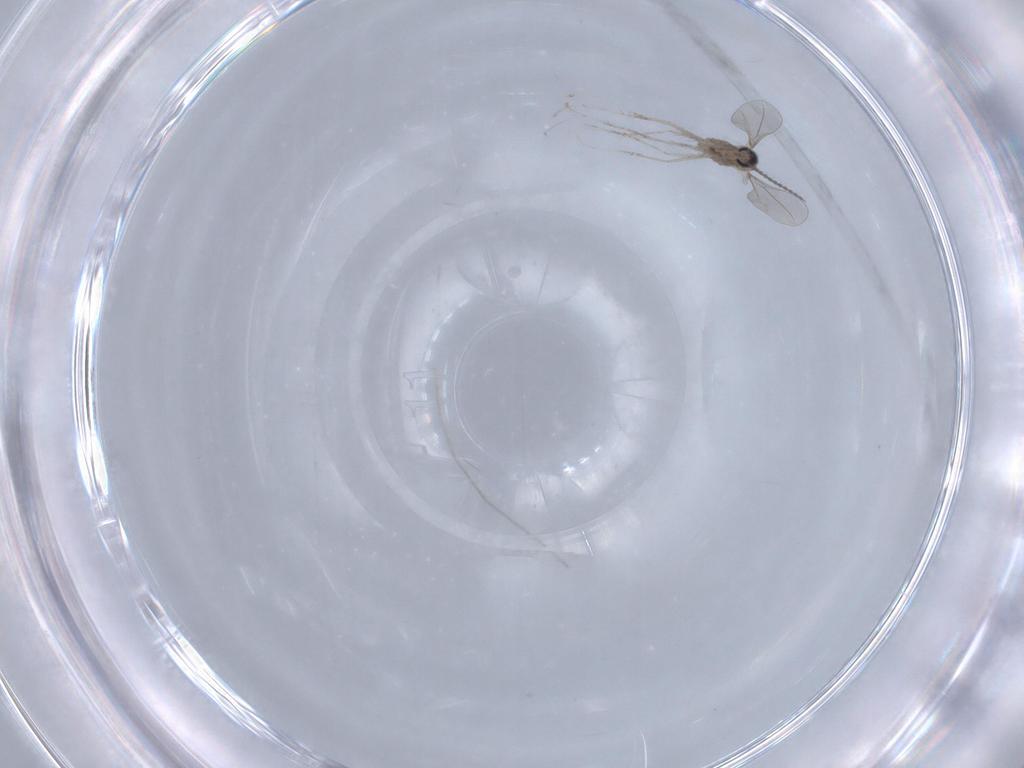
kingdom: Animalia
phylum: Arthropoda
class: Insecta
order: Diptera
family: Chironomidae
